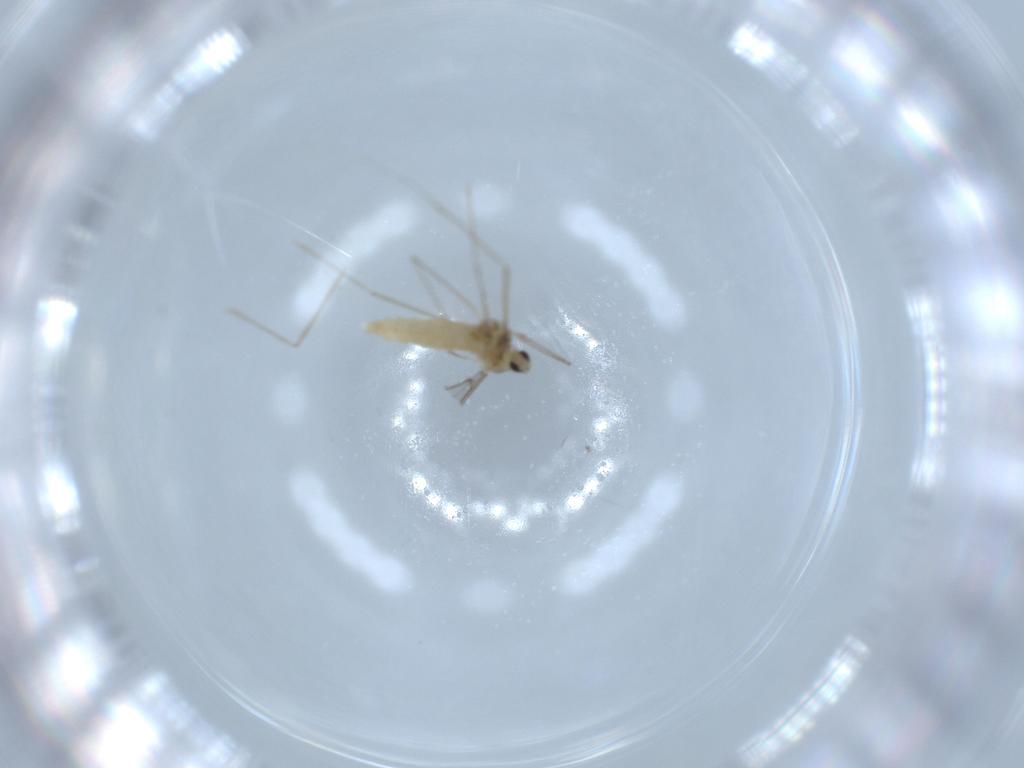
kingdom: Animalia
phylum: Arthropoda
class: Insecta
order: Diptera
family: Cecidomyiidae
